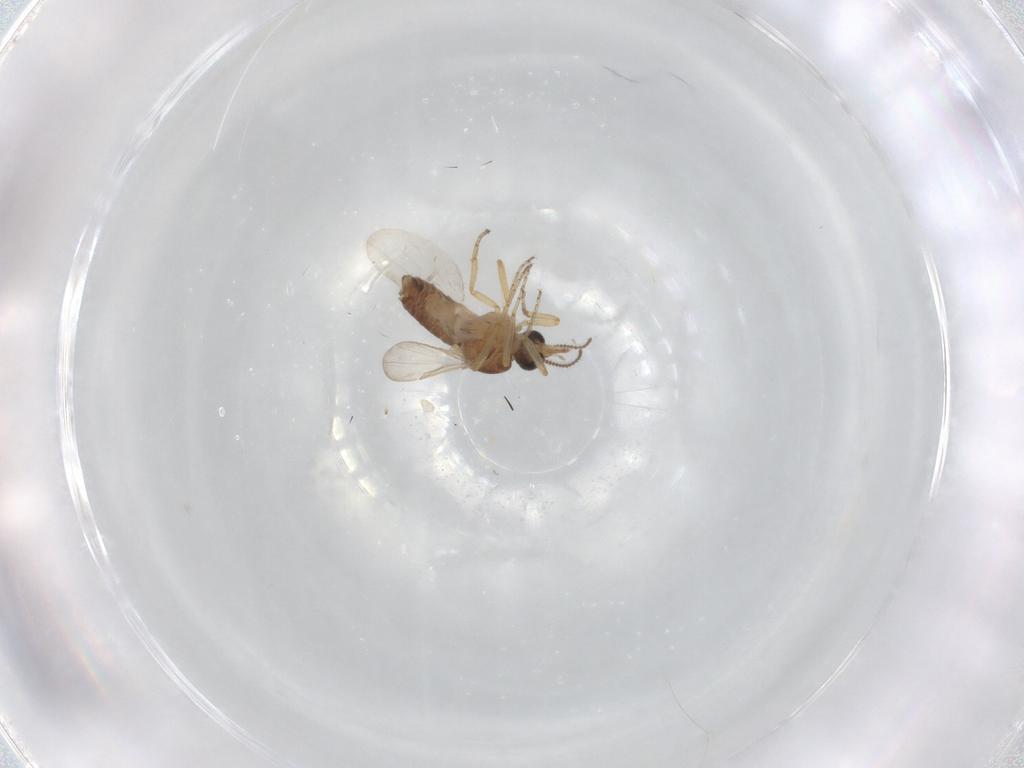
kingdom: Animalia
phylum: Arthropoda
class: Insecta
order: Diptera
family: Ceratopogonidae
